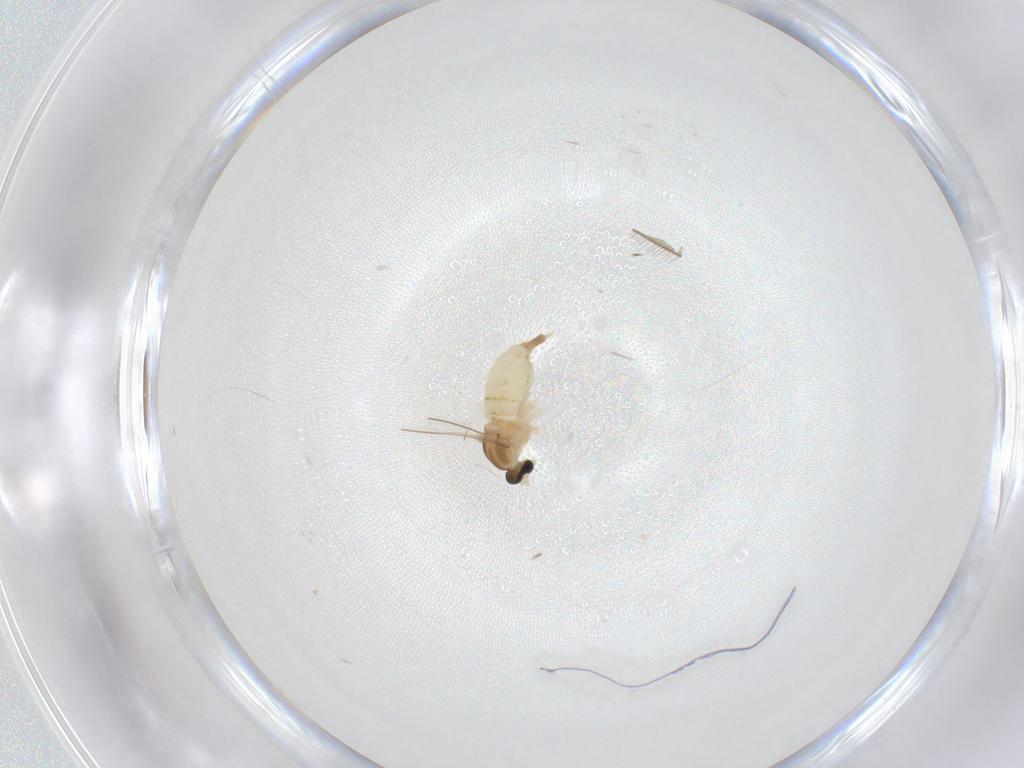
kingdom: Animalia
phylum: Arthropoda
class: Insecta
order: Diptera
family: Cecidomyiidae
